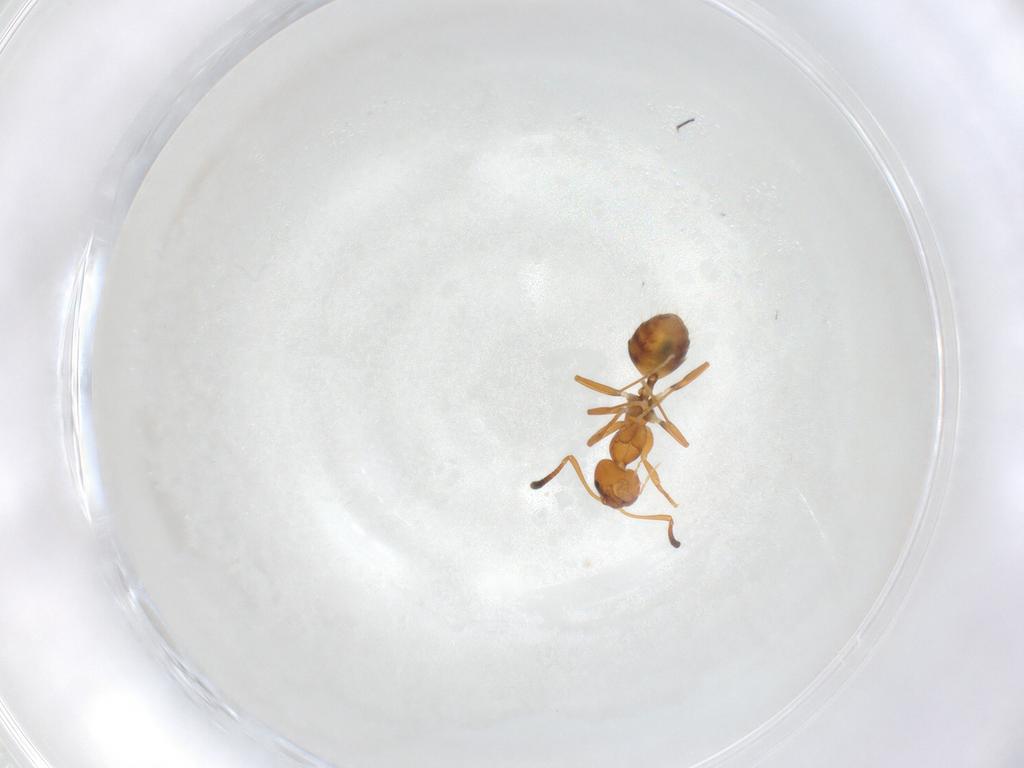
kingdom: Animalia
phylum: Arthropoda
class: Insecta
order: Hymenoptera
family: Formicidae
